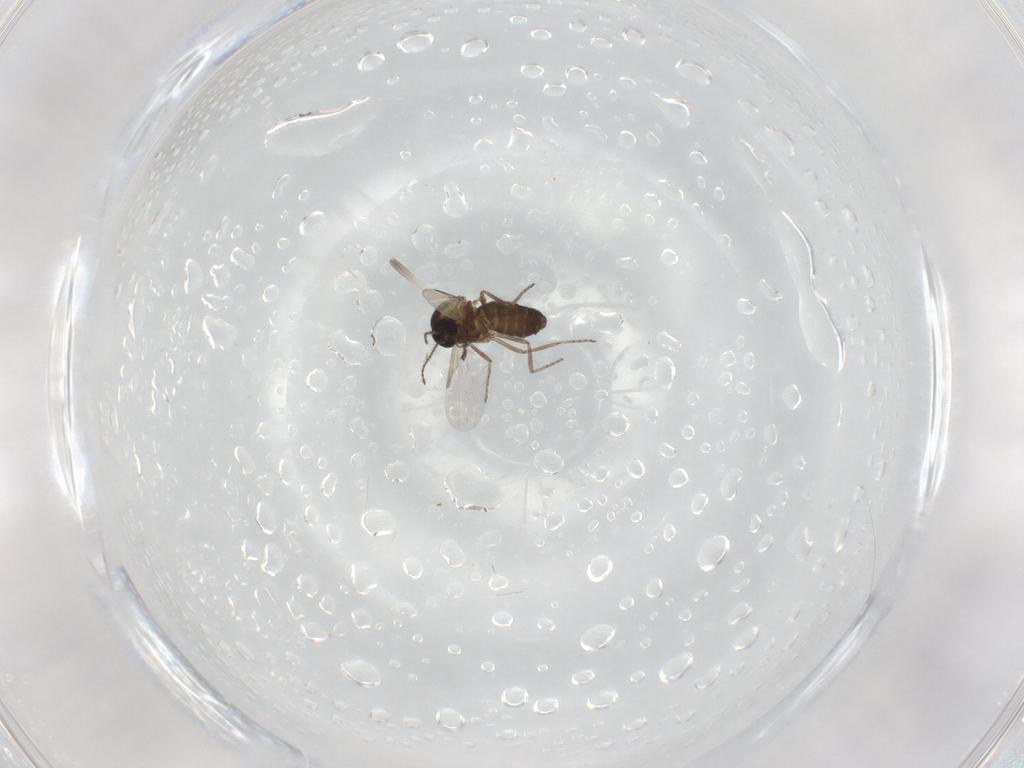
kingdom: Animalia
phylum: Arthropoda
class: Insecta
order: Diptera
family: Ceratopogonidae
